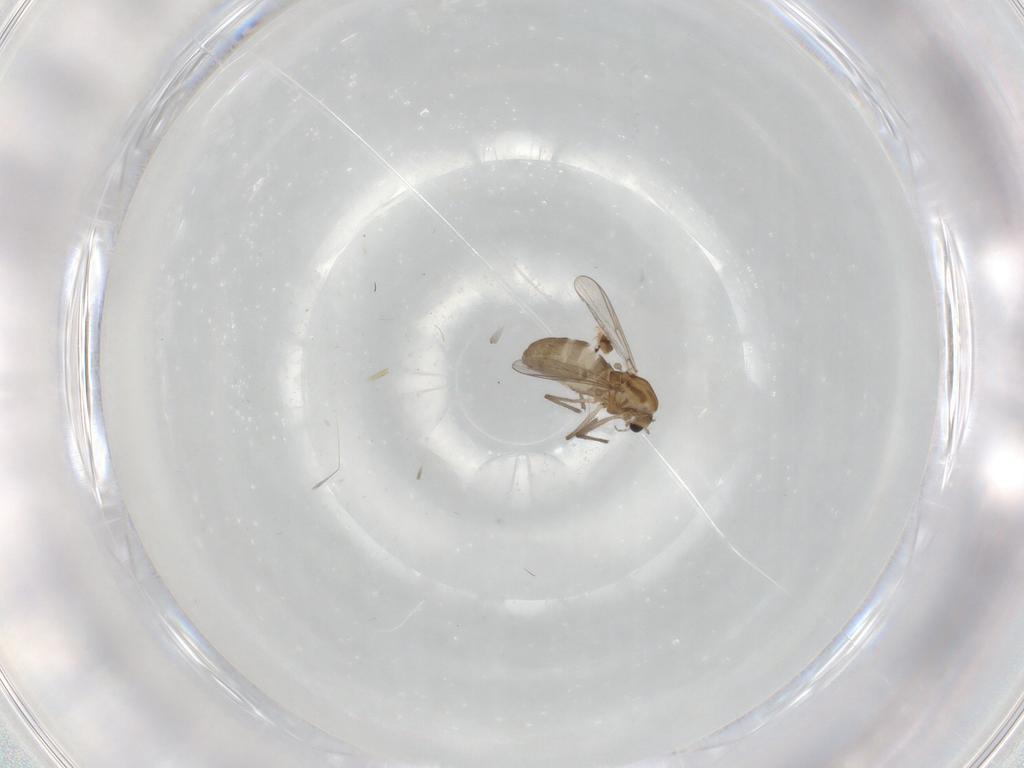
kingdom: Animalia
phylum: Arthropoda
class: Insecta
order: Diptera
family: Chironomidae
